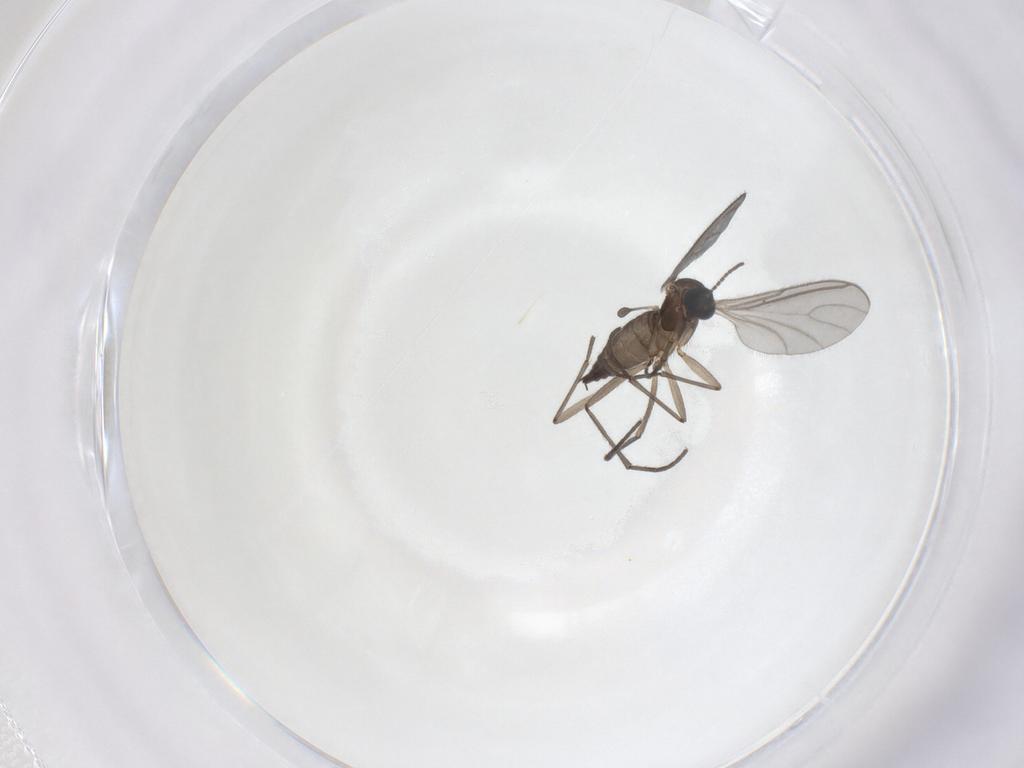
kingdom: Animalia
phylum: Arthropoda
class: Insecta
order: Diptera
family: Sciaridae
